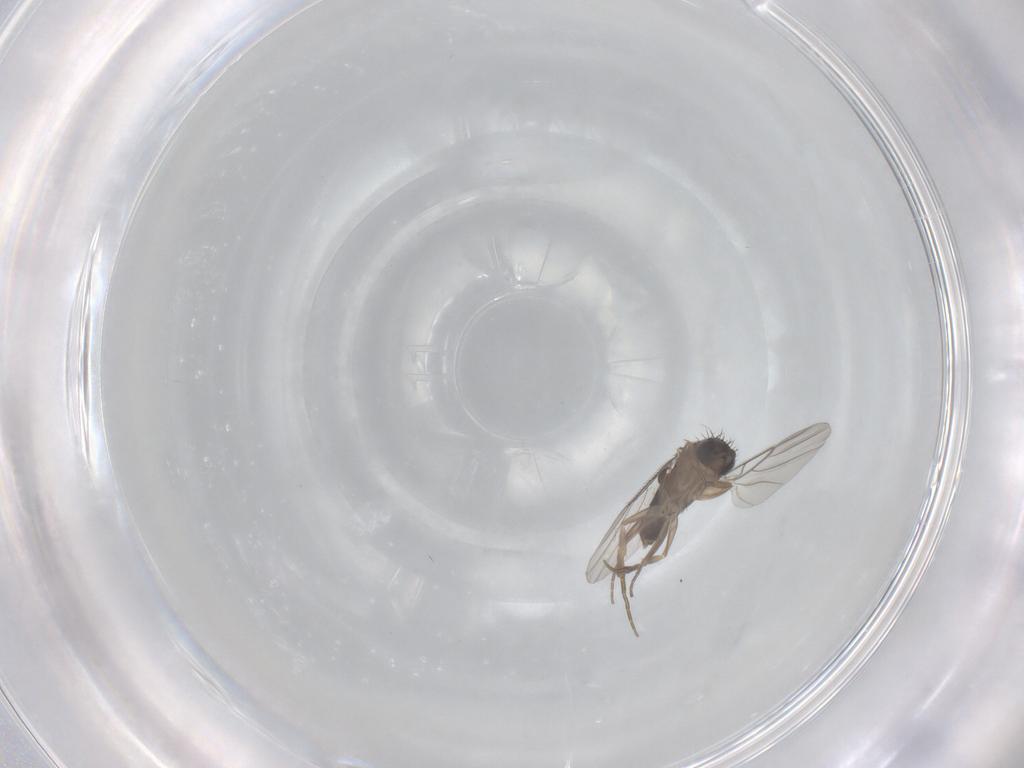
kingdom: Animalia
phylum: Arthropoda
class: Insecta
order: Diptera
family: Phoridae
